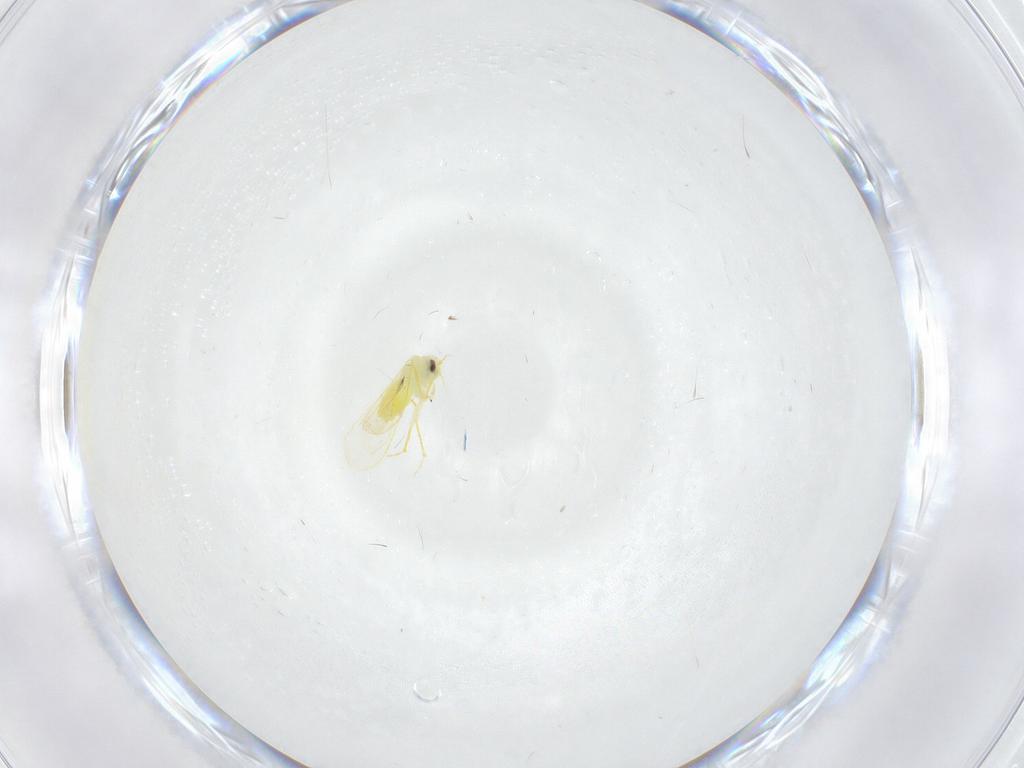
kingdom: Animalia
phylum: Arthropoda
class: Insecta
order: Hemiptera
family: Aleyrodidae
